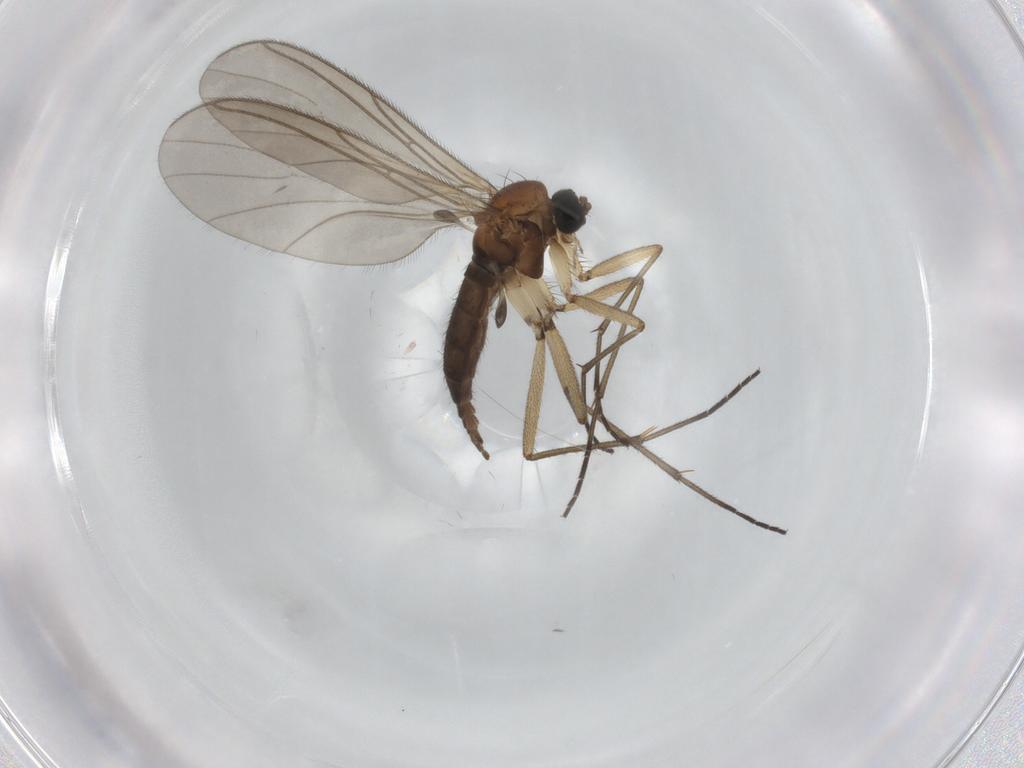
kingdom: Animalia
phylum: Arthropoda
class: Insecta
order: Diptera
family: Sciaridae
